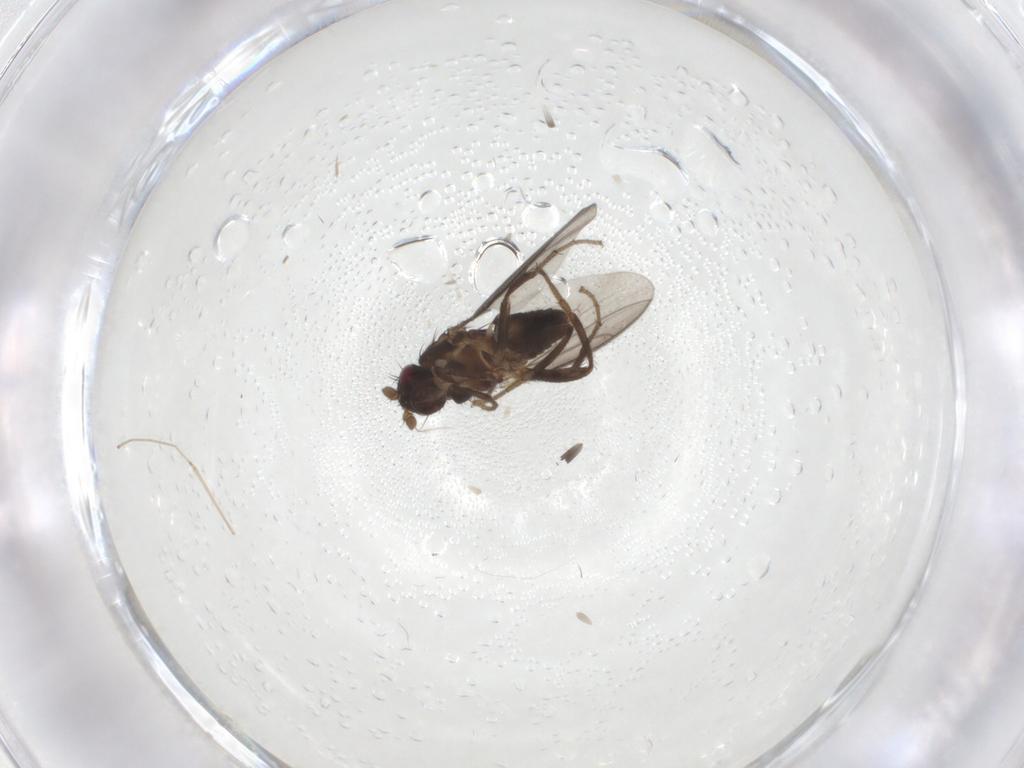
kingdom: Animalia
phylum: Arthropoda
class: Insecta
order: Diptera
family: Sphaeroceridae
